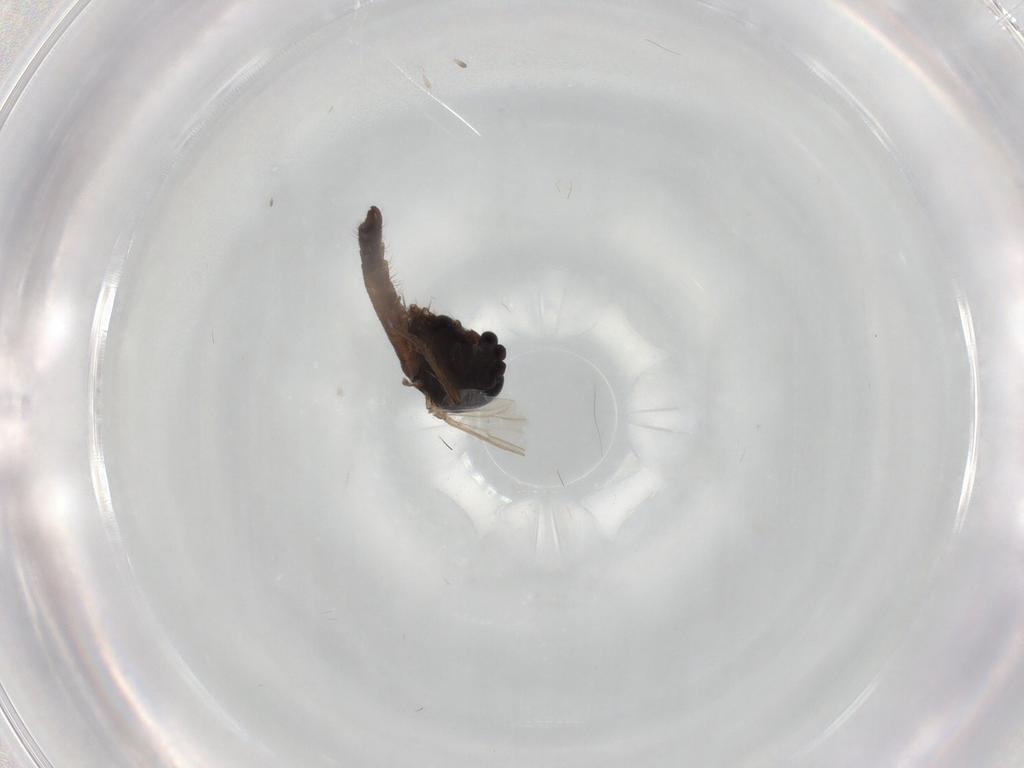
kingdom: Animalia
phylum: Arthropoda
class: Insecta
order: Diptera
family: Chironomidae
